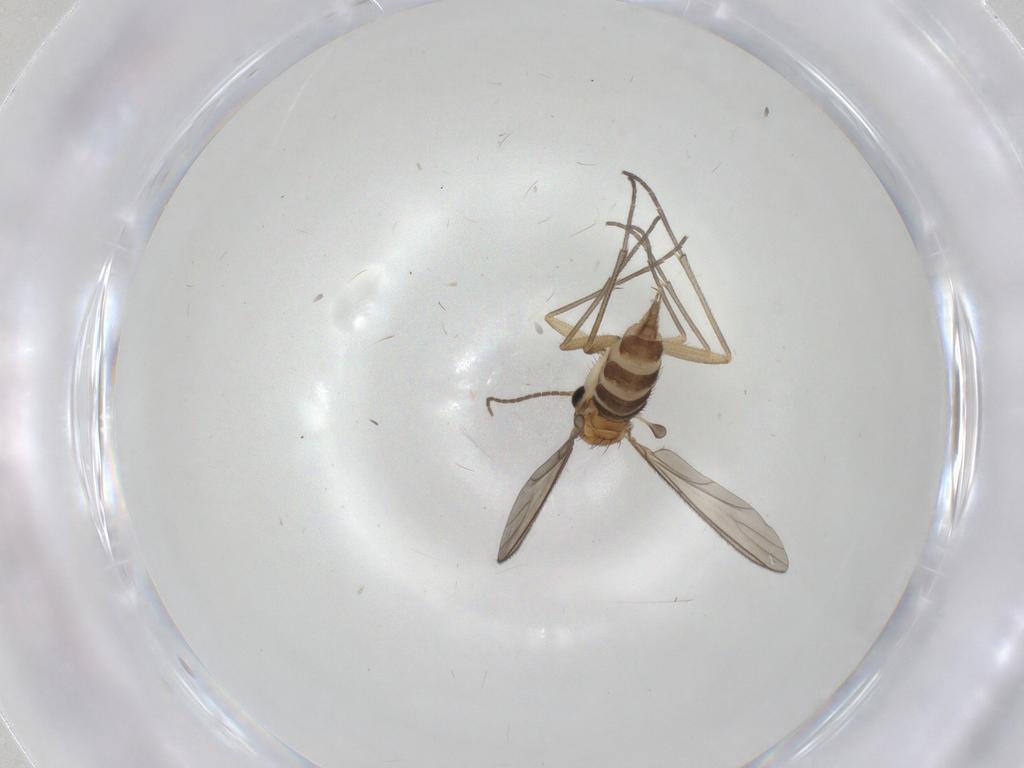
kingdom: Animalia
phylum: Arthropoda
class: Insecta
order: Diptera
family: Sciaridae
